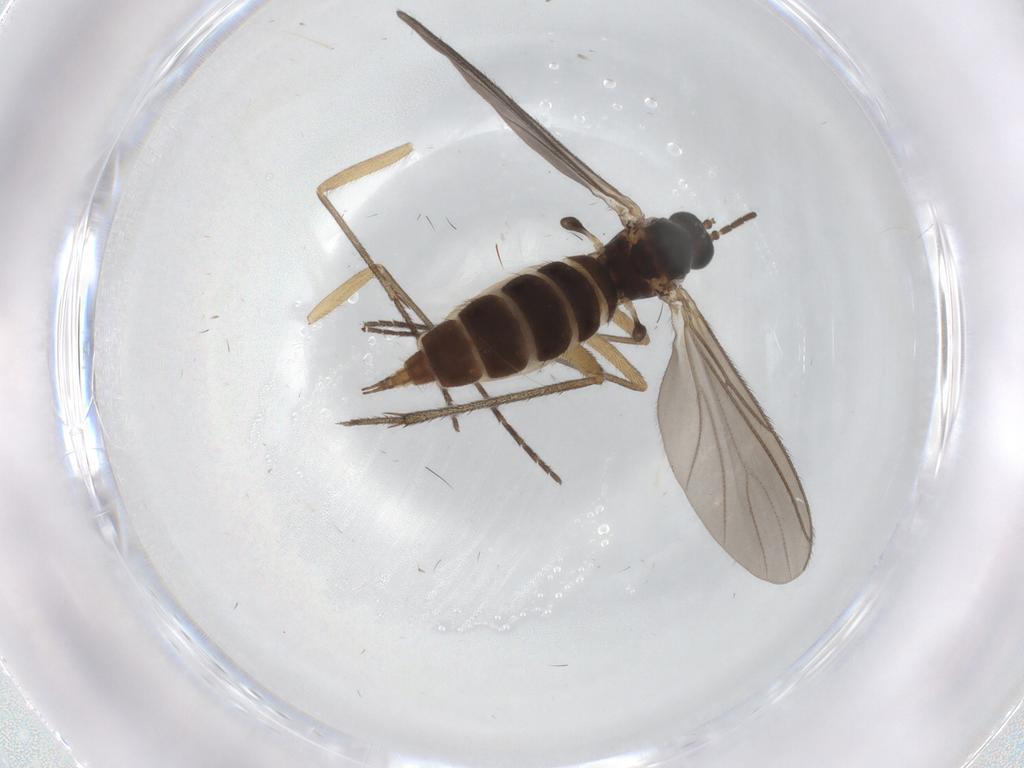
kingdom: Animalia
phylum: Arthropoda
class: Insecta
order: Diptera
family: Sciaridae
